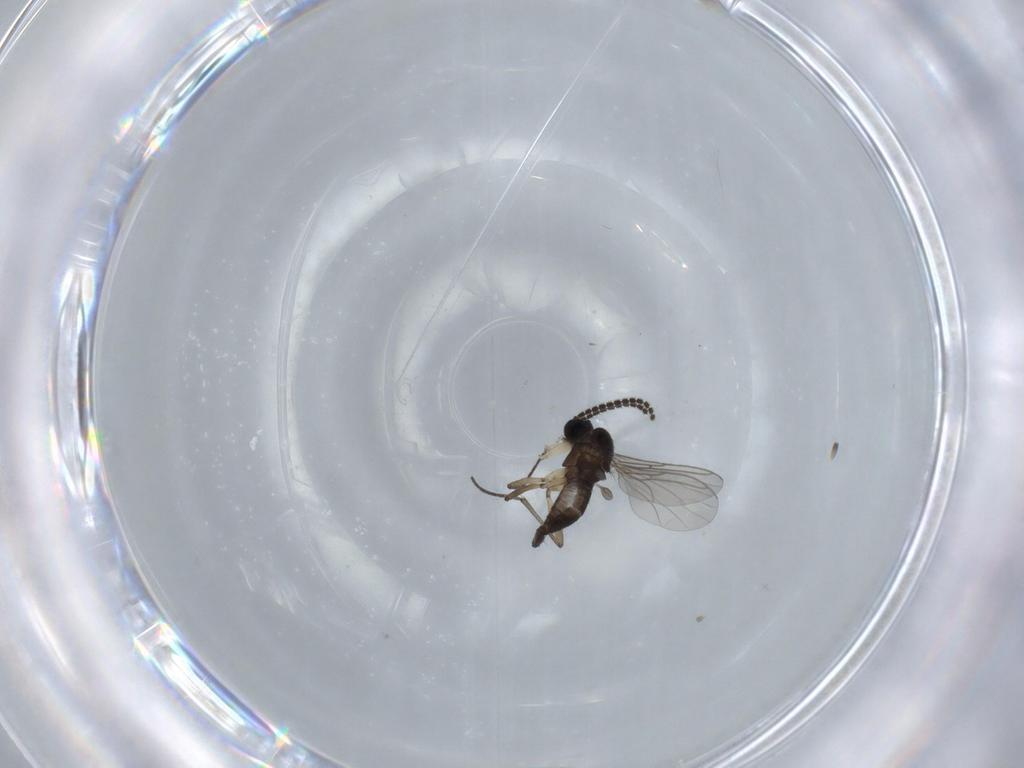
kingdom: Animalia
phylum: Arthropoda
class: Insecta
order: Diptera
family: Sciaridae
